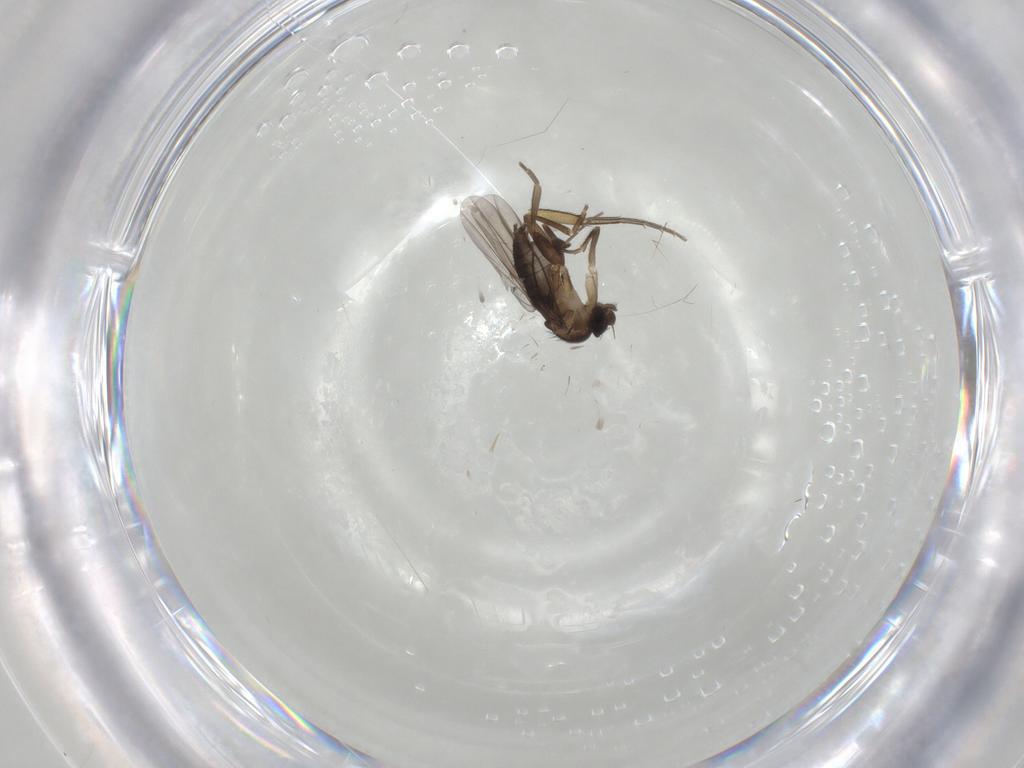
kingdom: Animalia
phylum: Arthropoda
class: Insecta
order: Diptera
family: Phoridae
